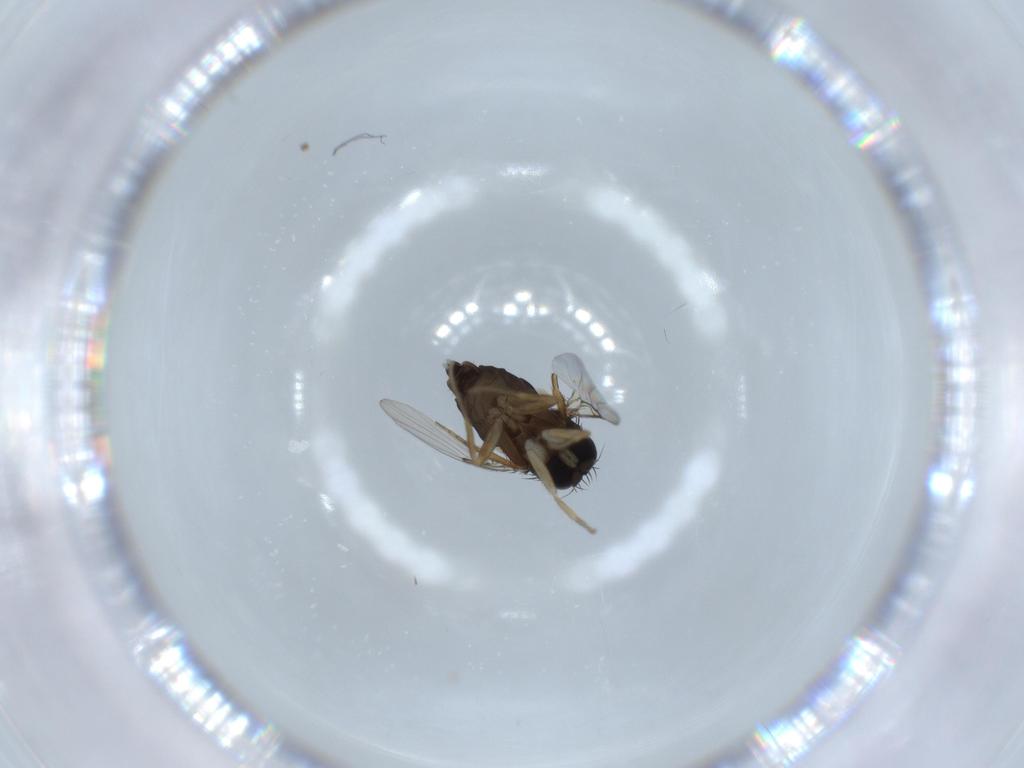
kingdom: Animalia
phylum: Arthropoda
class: Insecta
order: Diptera
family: Phoridae
